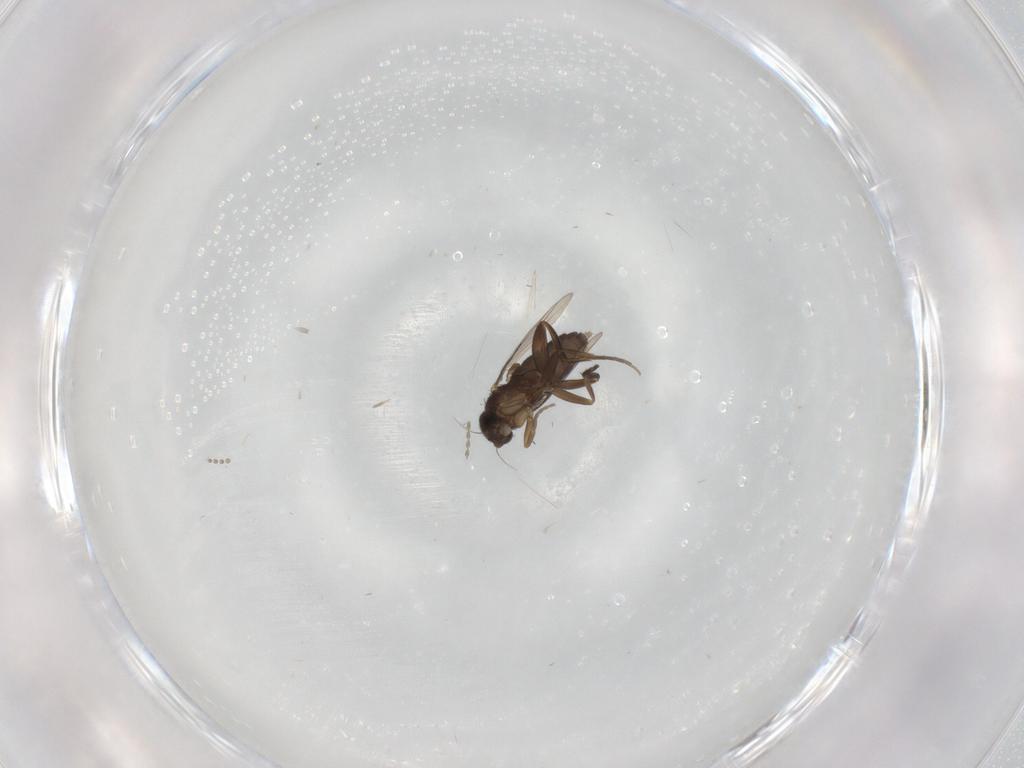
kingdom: Animalia
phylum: Arthropoda
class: Insecta
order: Diptera
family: Phoridae
